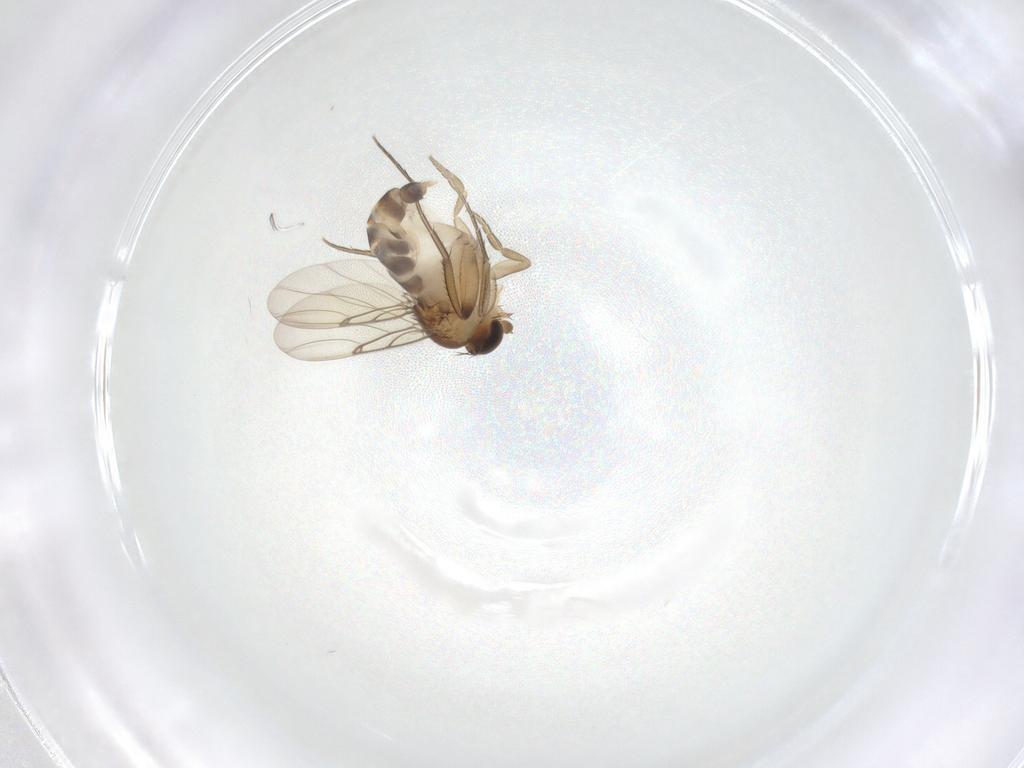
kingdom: Animalia
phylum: Arthropoda
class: Insecta
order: Diptera
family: Phoridae
